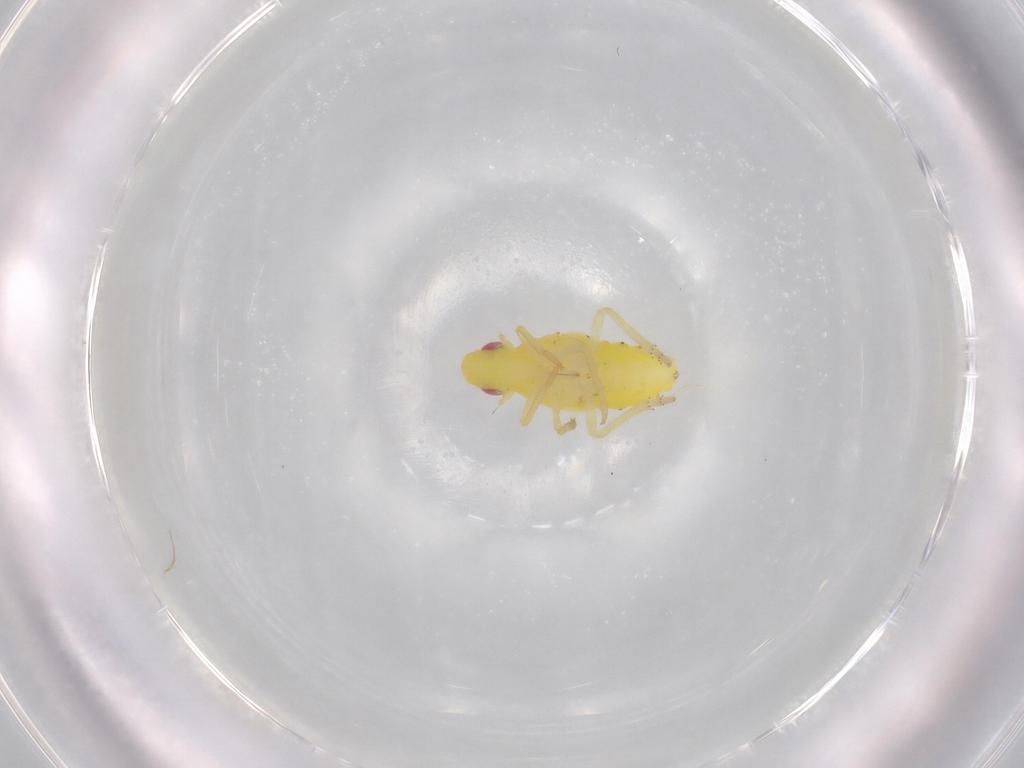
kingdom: Animalia
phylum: Arthropoda
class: Insecta
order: Hemiptera
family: Tropiduchidae
